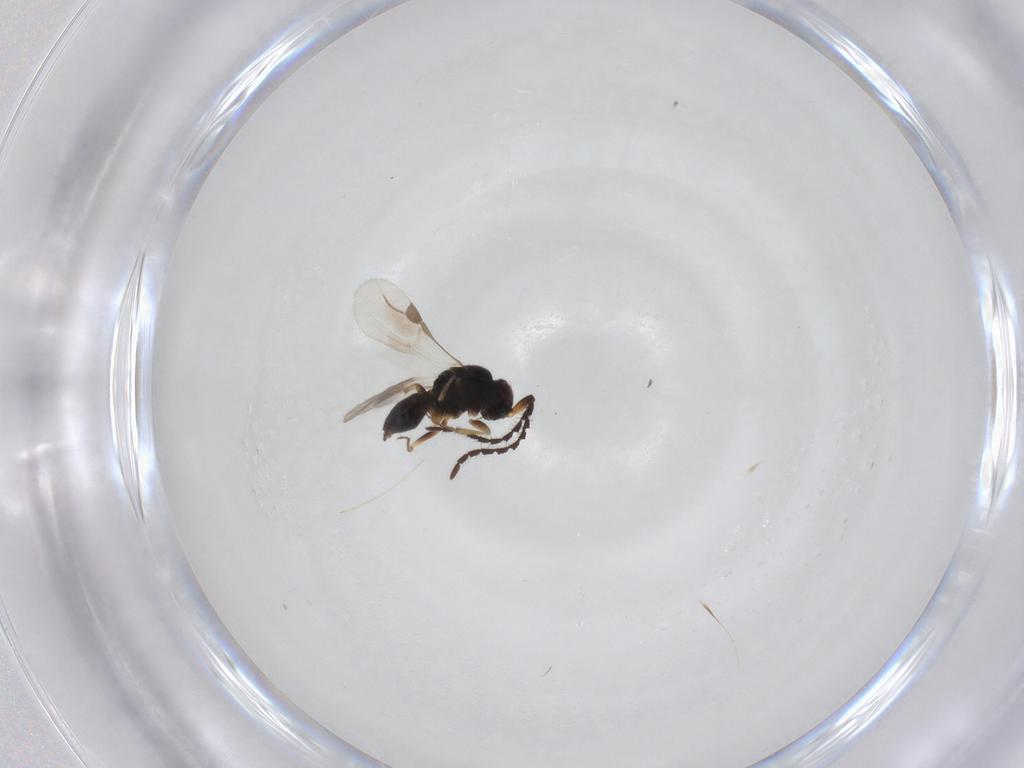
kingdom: Animalia
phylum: Arthropoda
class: Insecta
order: Hymenoptera
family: Megaspilidae
